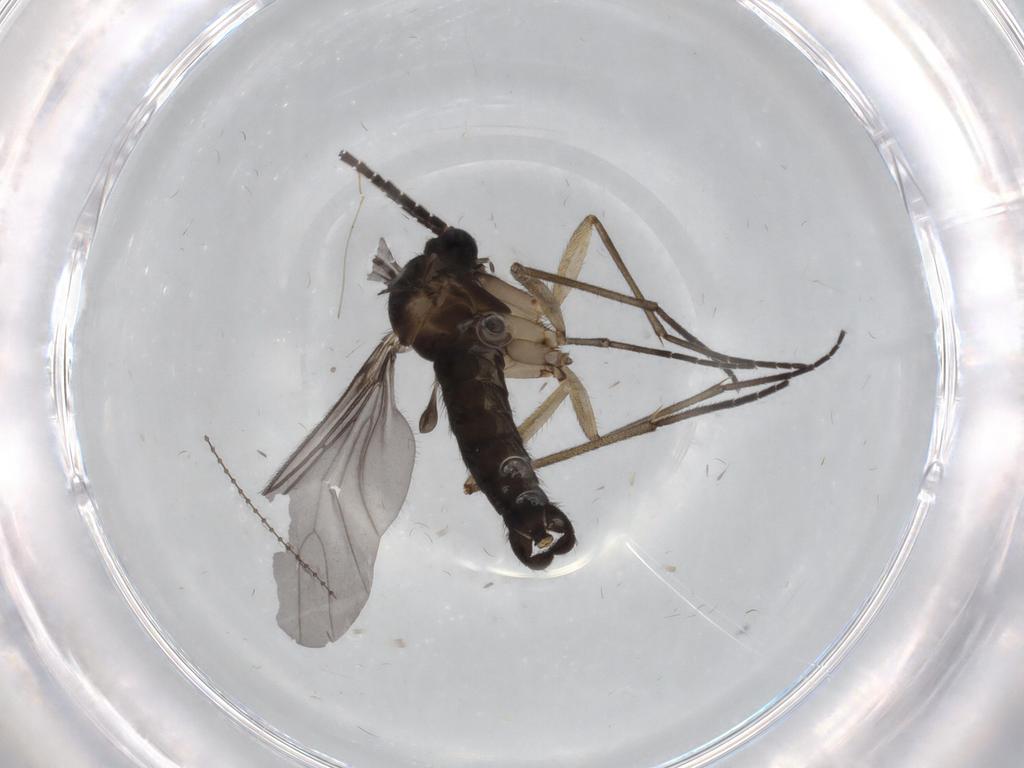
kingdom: Animalia
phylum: Arthropoda
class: Insecta
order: Diptera
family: Sciaridae
